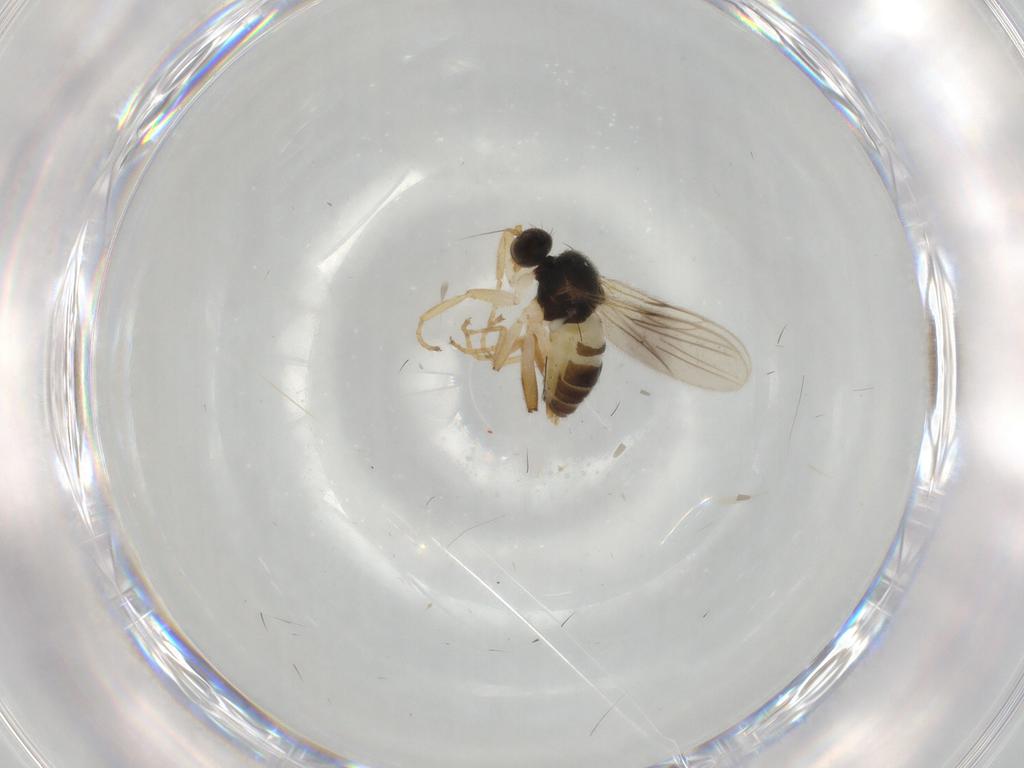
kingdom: Animalia
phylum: Arthropoda
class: Insecta
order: Diptera
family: Hybotidae
